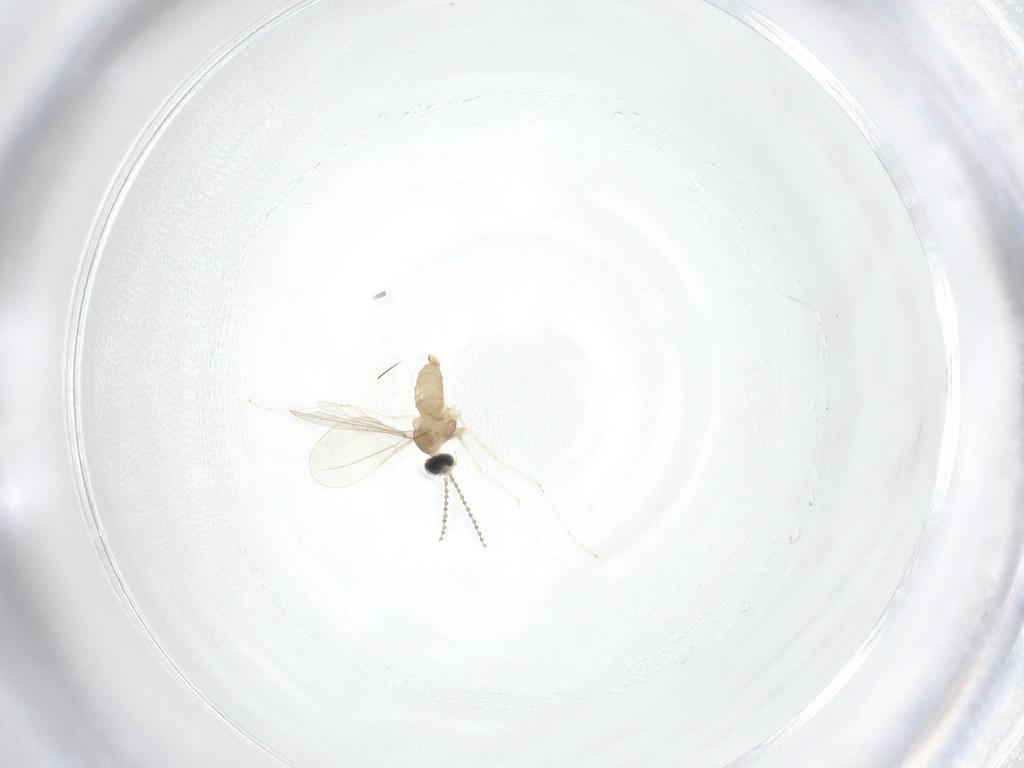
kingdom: Animalia
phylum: Arthropoda
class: Insecta
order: Diptera
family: Cecidomyiidae
